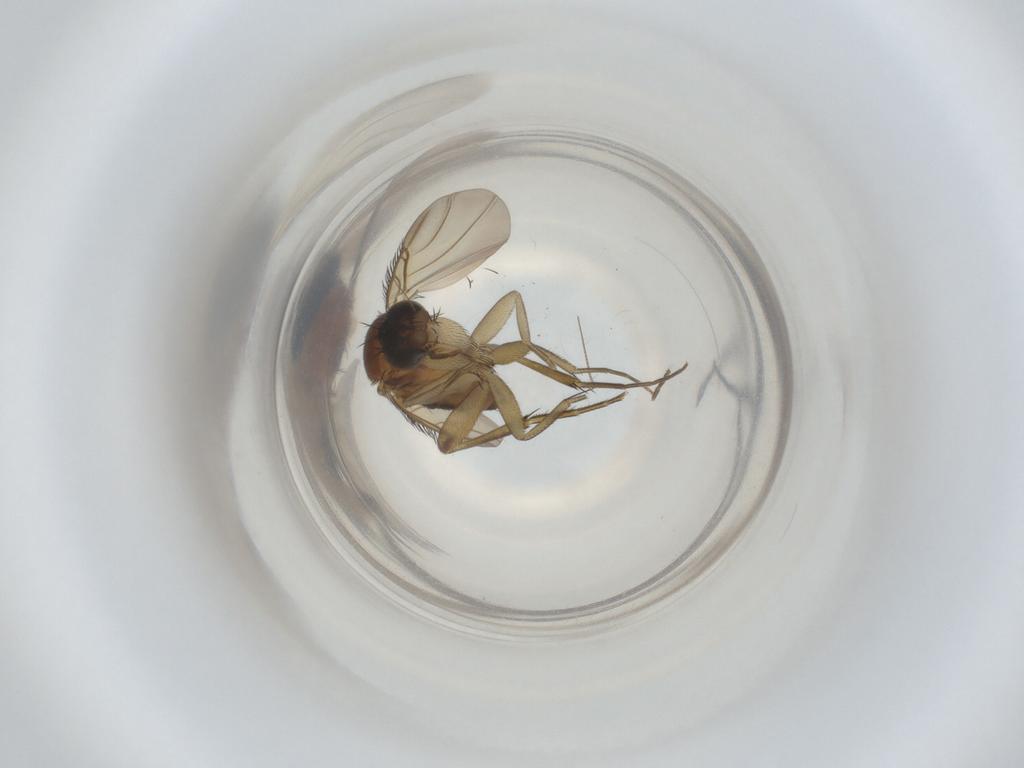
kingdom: Animalia
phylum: Arthropoda
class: Insecta
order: Diptera
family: Phoridae
